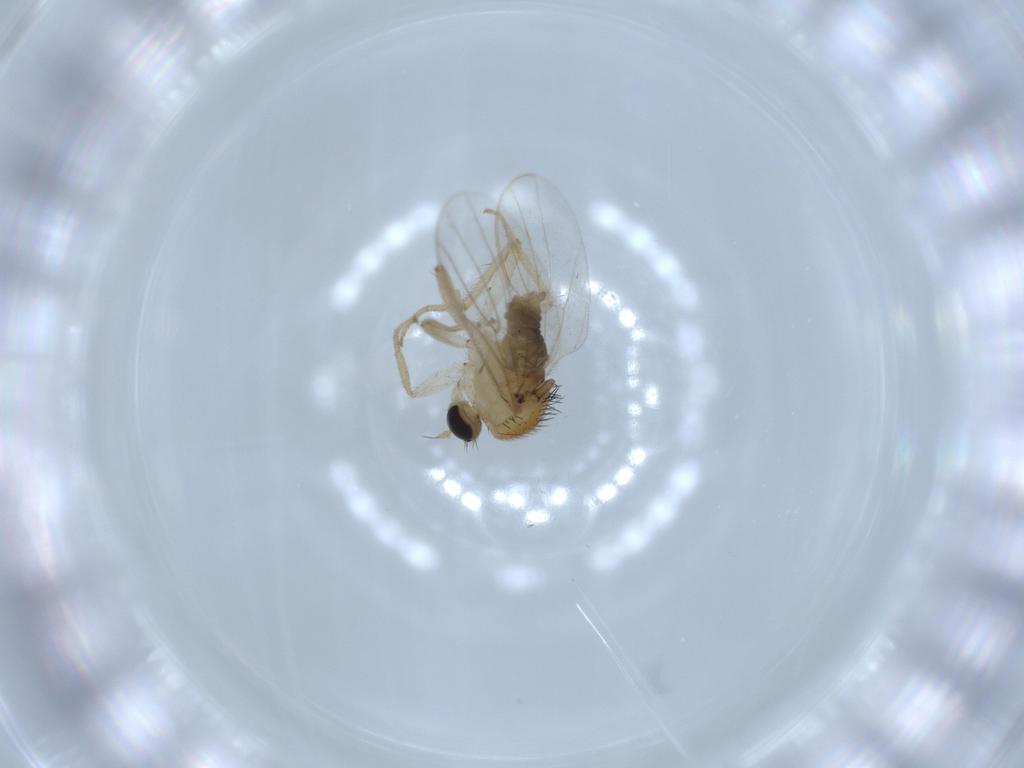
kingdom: Animalia
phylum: Arthropoda
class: Insecta
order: Diptera
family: Hybotidae
